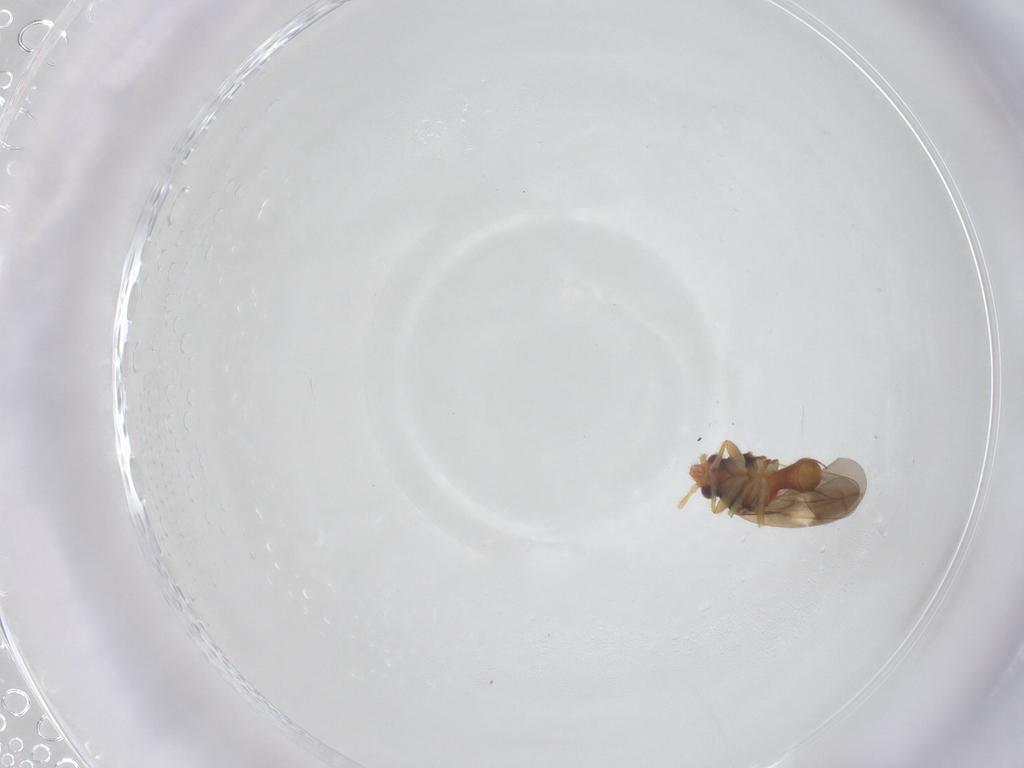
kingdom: Animalia
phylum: Arthropoda
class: Insecta
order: Hemiptera
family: Ceratocombidae
